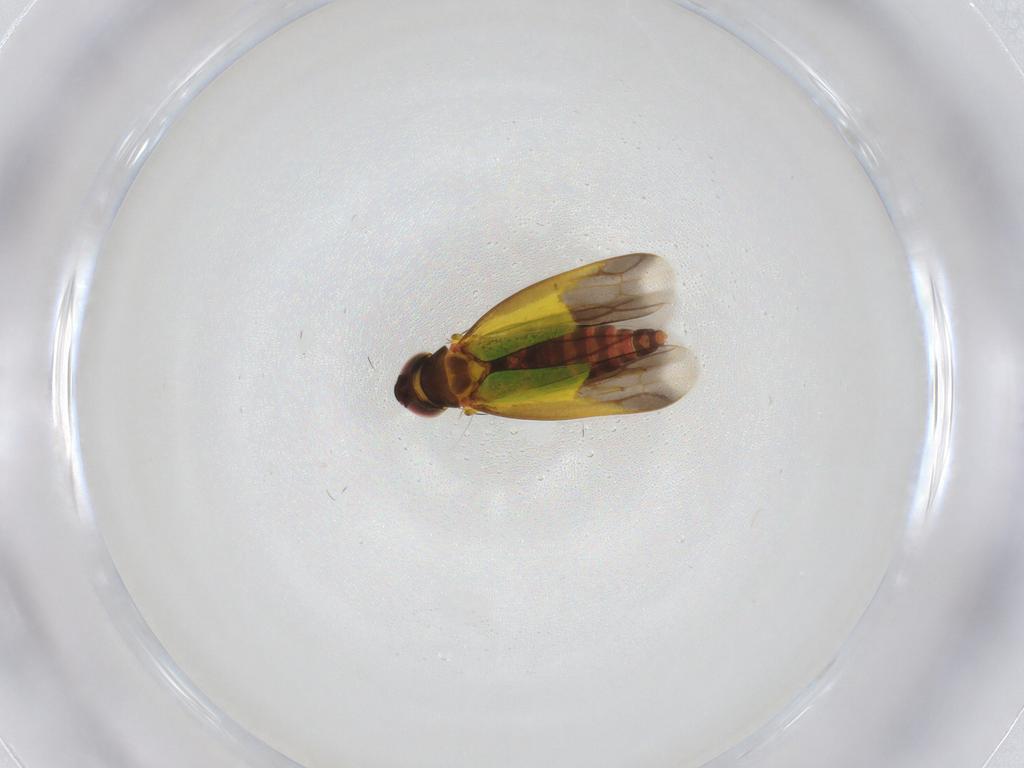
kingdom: Animalia
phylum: Arthropoda
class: Insecta
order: Hemiptera
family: Cicadellidae
